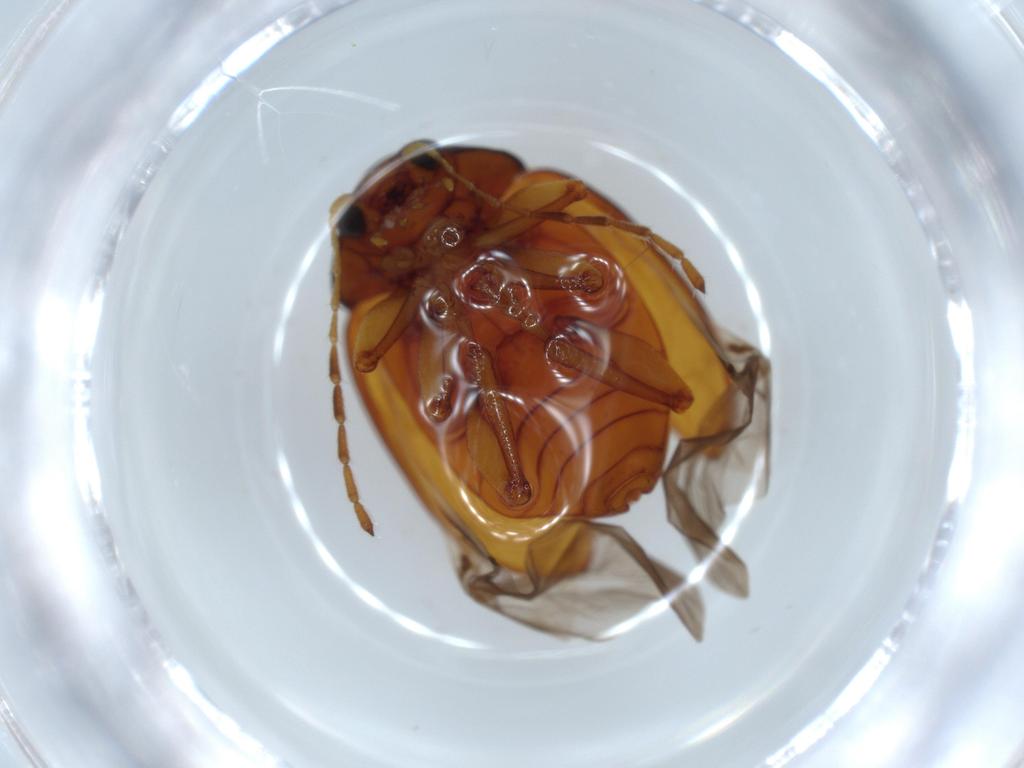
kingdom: Animalia
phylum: Arthropoda
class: Insecta
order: Coleoptera
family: Chrysomelidae
